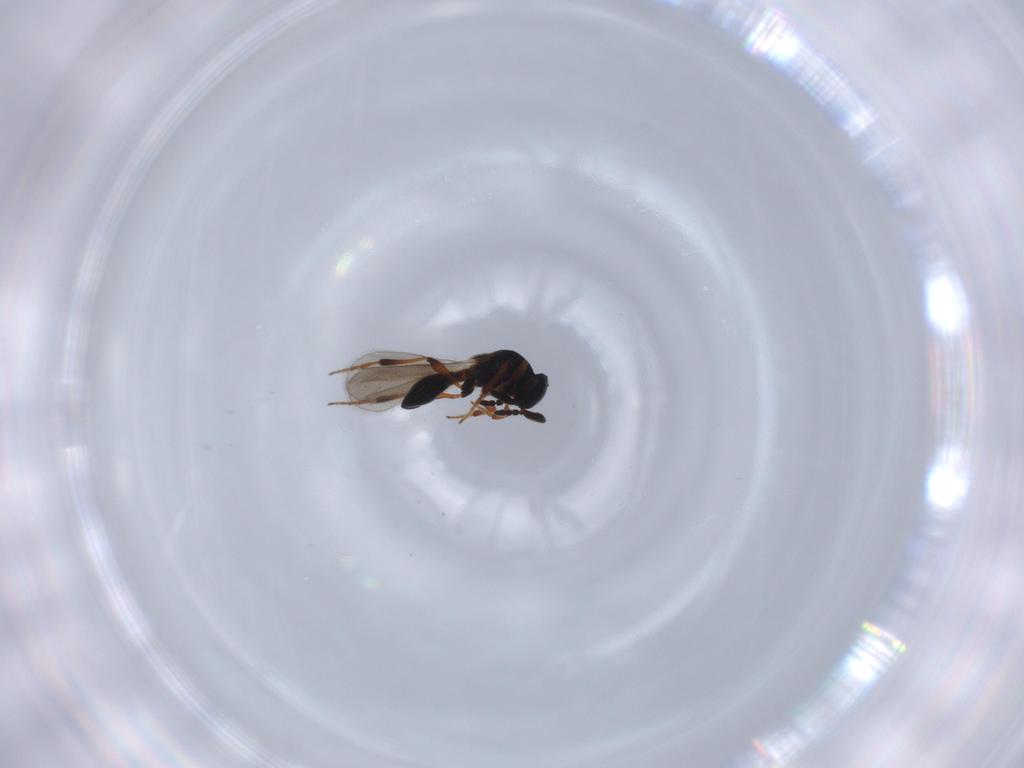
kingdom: Animalia
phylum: Arthropoda
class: Insecta
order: Hymenoptera
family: Platygastridae
